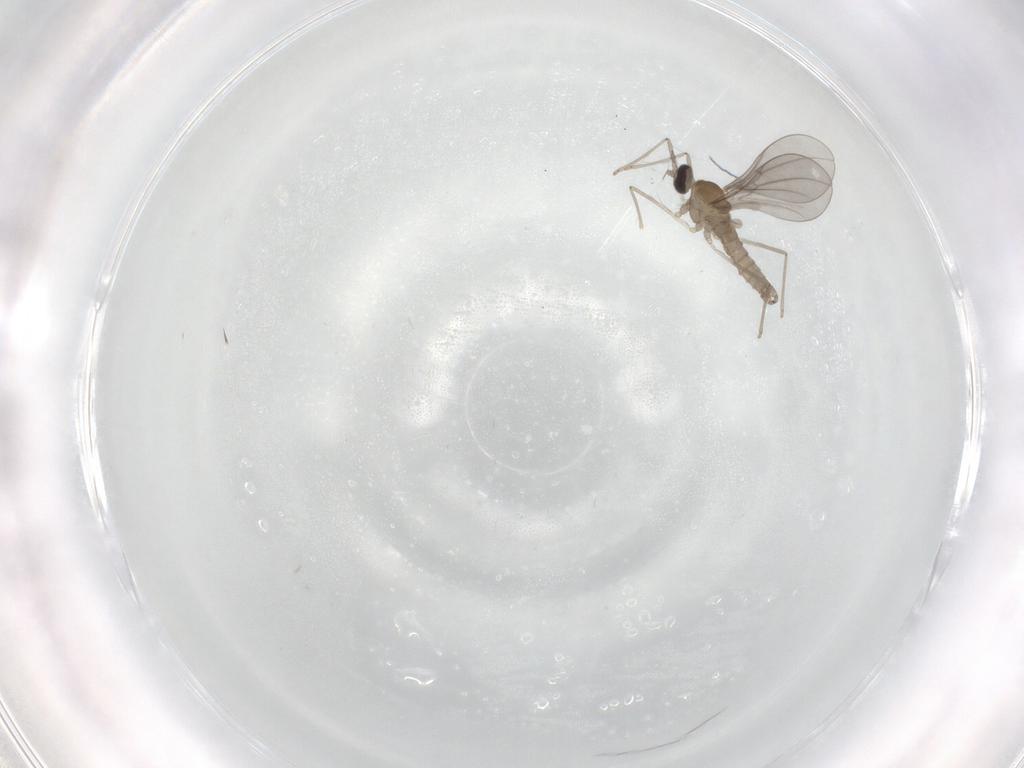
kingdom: Animalia
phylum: Arthropoda
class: Insecta
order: Diptera
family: Cecidomyiidae
